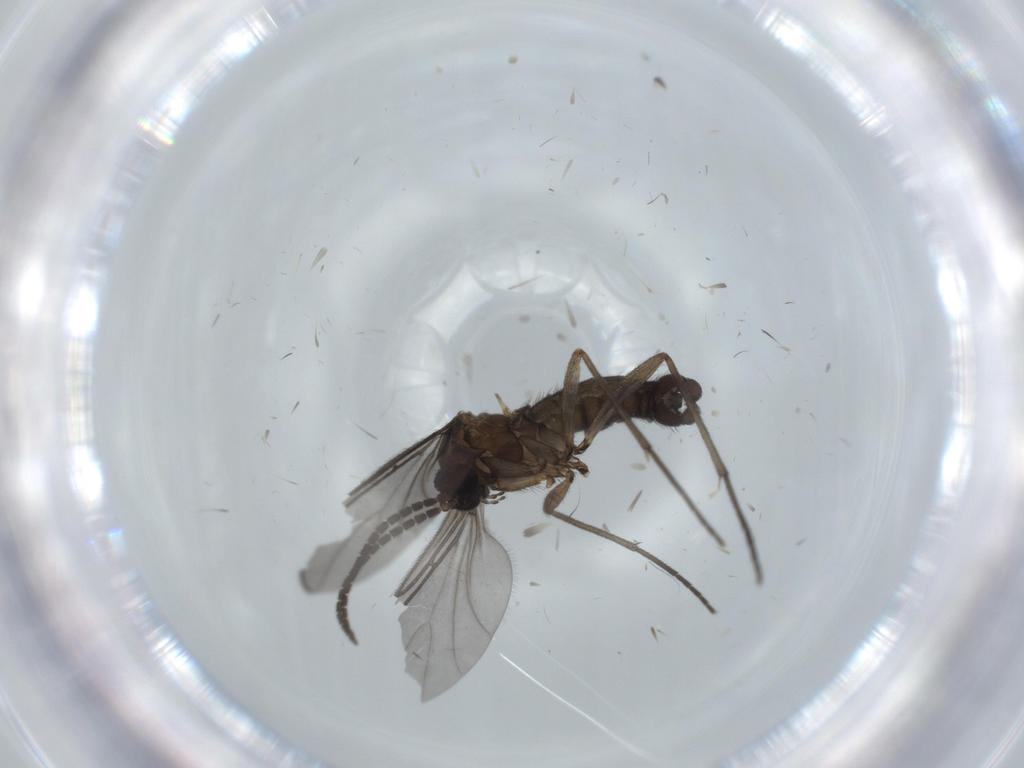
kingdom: Animalia
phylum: Arthropoda
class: Insecta
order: Diptera
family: Sciaridae
